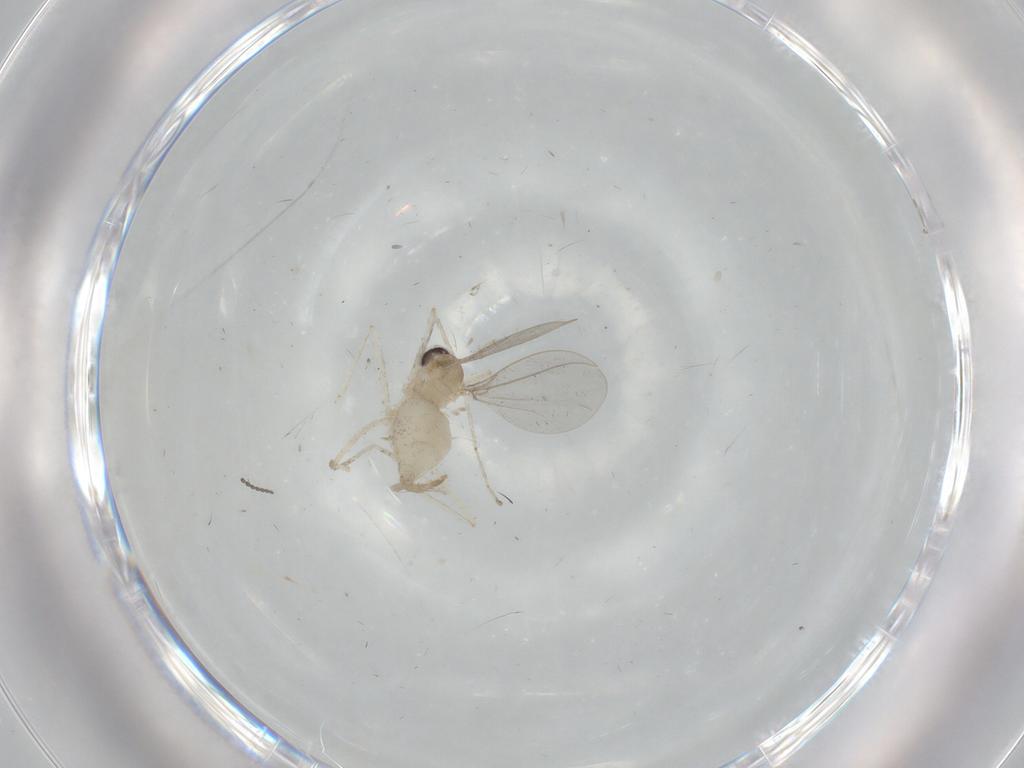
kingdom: Animalia
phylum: Arthropoda
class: Insecta
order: Diptera
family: Cecidomyiidae
